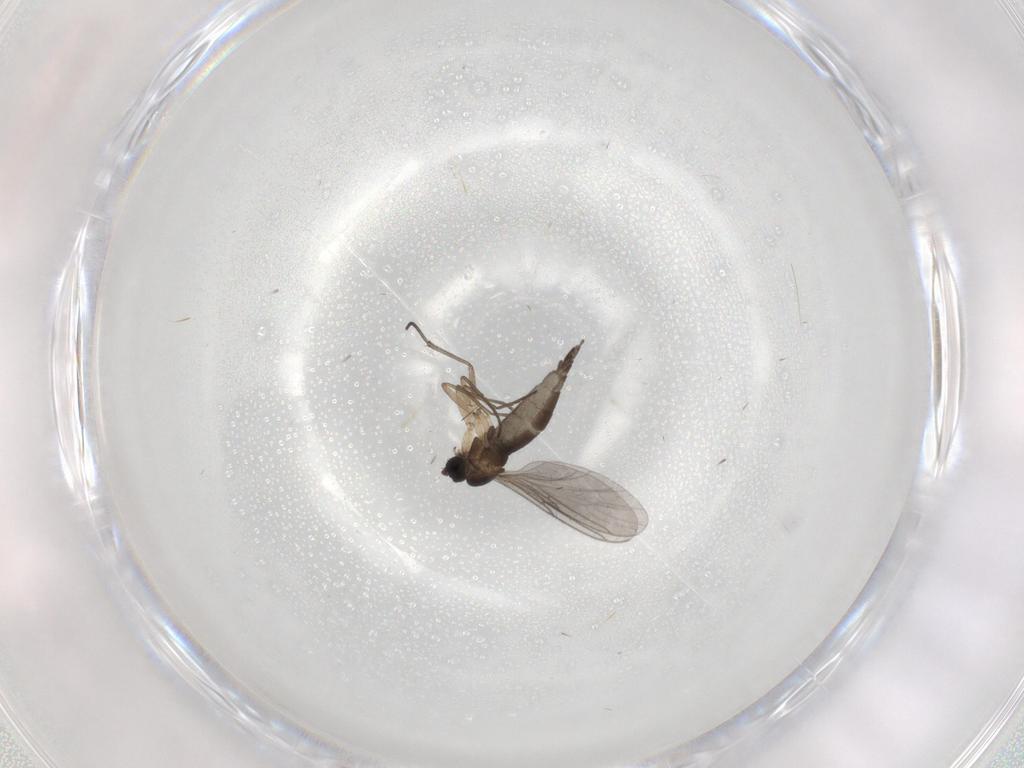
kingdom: Animalia
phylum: Arthropoda
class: Insecta
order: Diptera
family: Sciaridae
